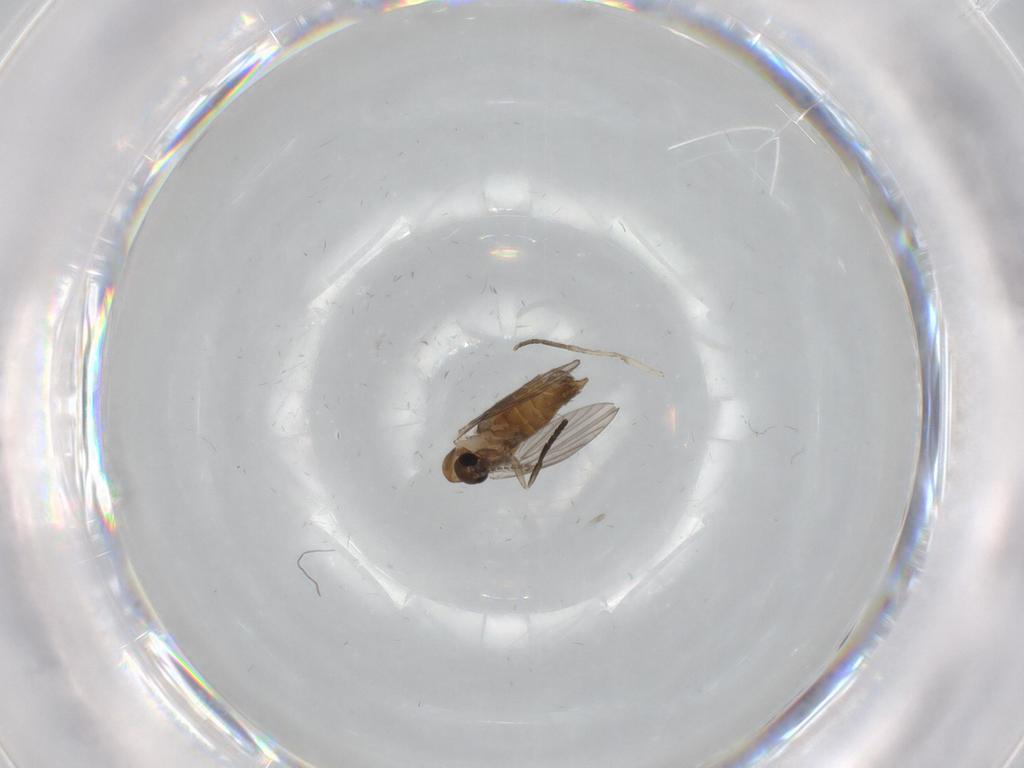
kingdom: Animalia
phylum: Arthropoda
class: Insecta
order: Diptera
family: Psychodidae
